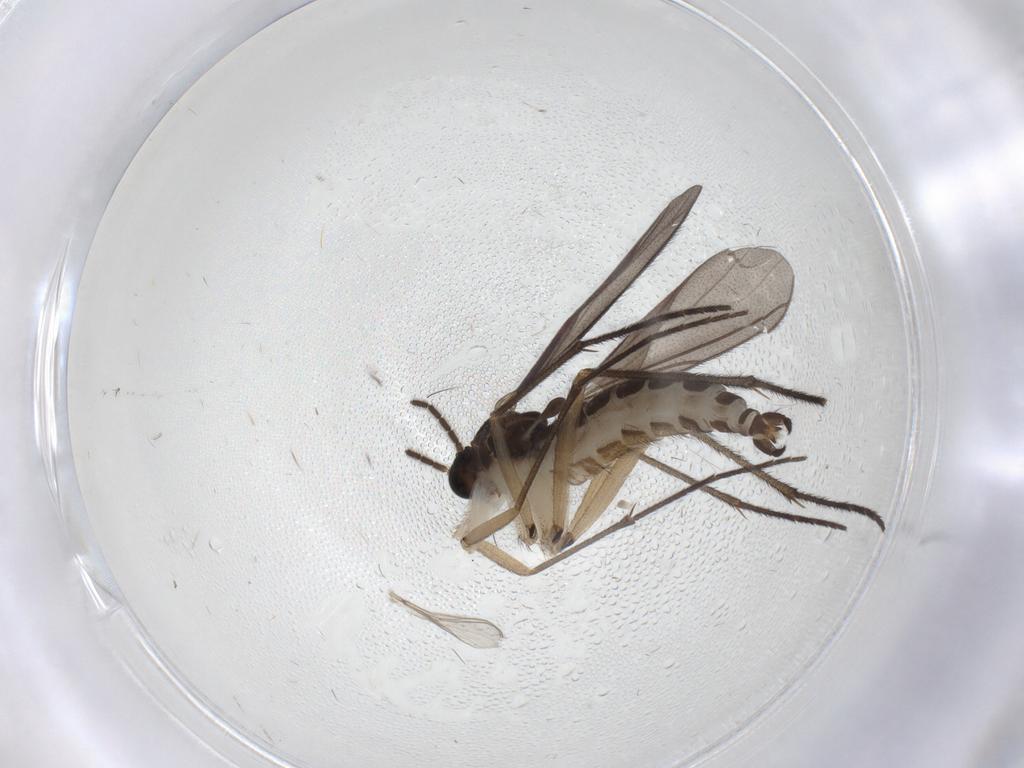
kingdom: Animalia
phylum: Arthropoda
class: Insecta
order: Diptera
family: Sciaridae
